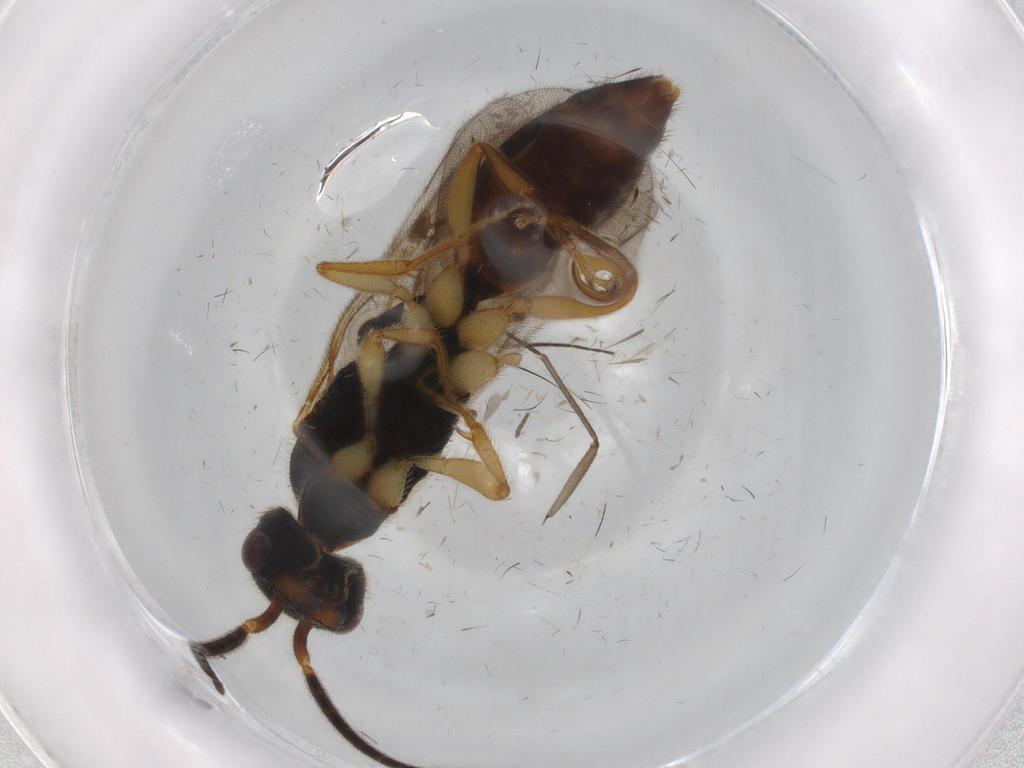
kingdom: Animalia
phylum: Arthropoda
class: Insecta
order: Hymenoptera
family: Bethylidae
